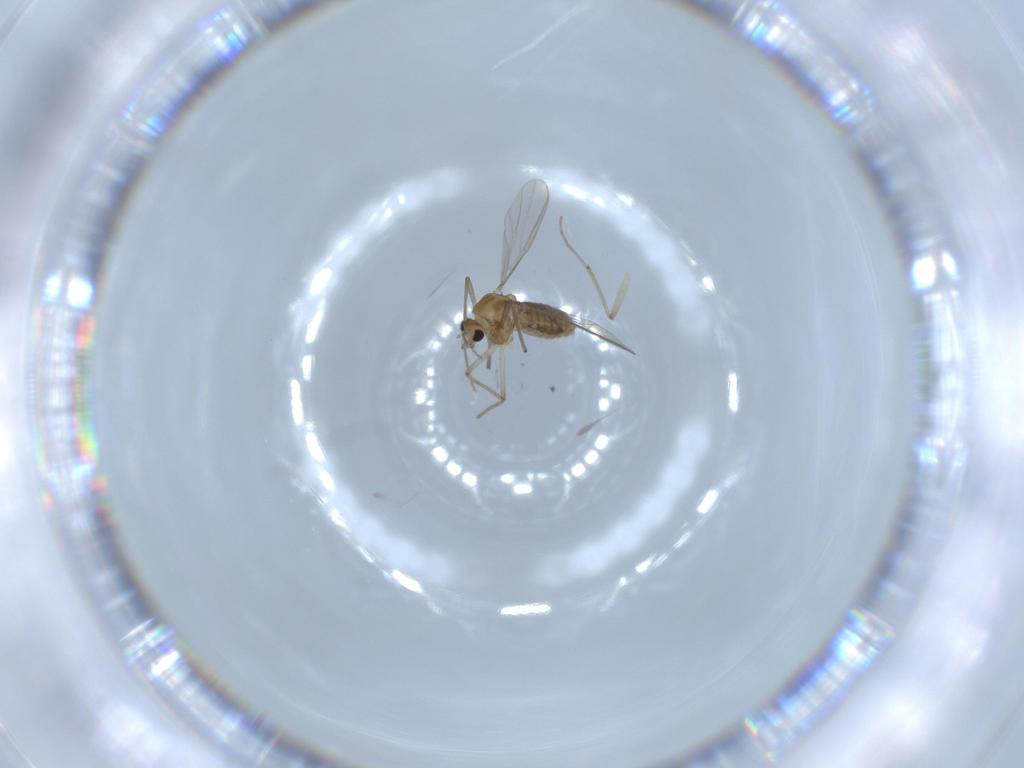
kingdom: Animalia
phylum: Arthropoda
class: Insecta
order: Diptera
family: Chironomidae
